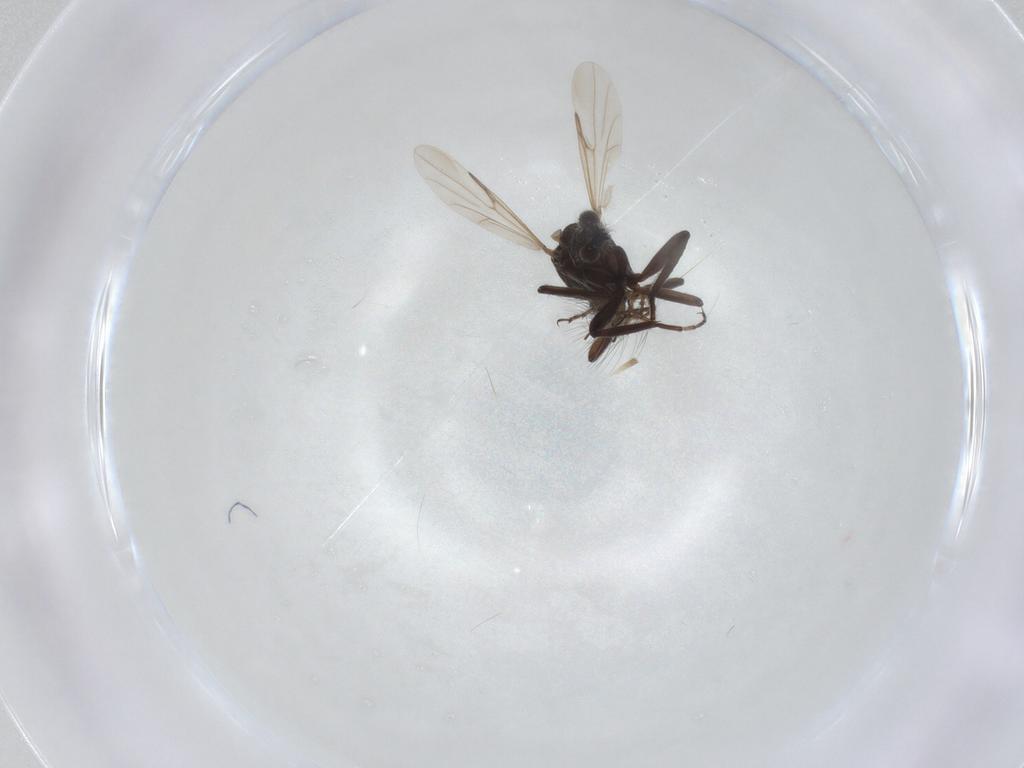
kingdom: Animalia
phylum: Arthropoda
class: Insecta
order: Diptera
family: Ceratopogonidae
